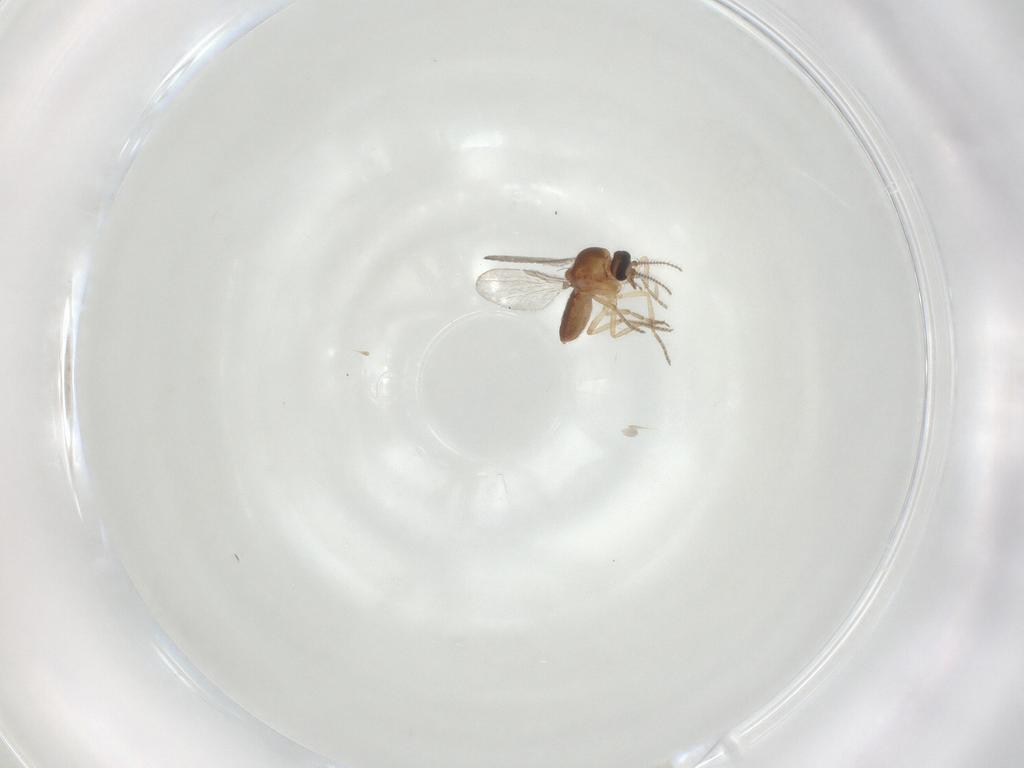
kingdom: Animalia
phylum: Arthropoda
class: Insecta
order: Diptera
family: Ceratopogonidae
